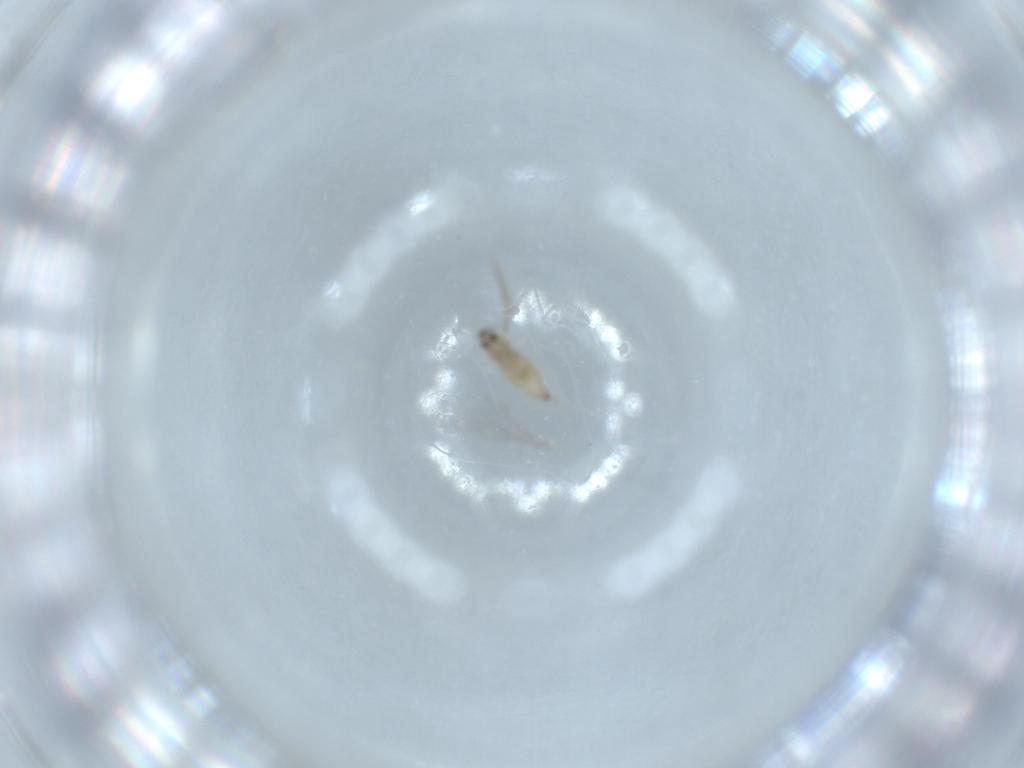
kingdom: Animalia
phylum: Arthropoda
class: Insecta
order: Diptera
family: Cecidomyiidae
